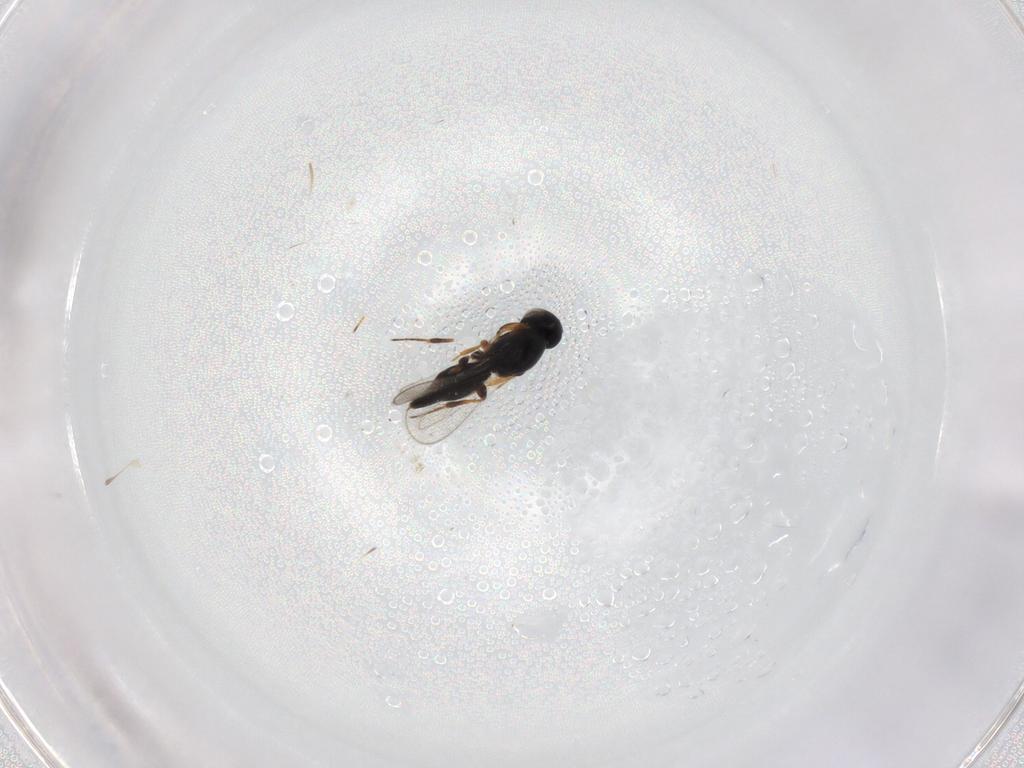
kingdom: Animalia
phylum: Arthropoda
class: Insecta
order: Hymenoptera
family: Platygastridae
